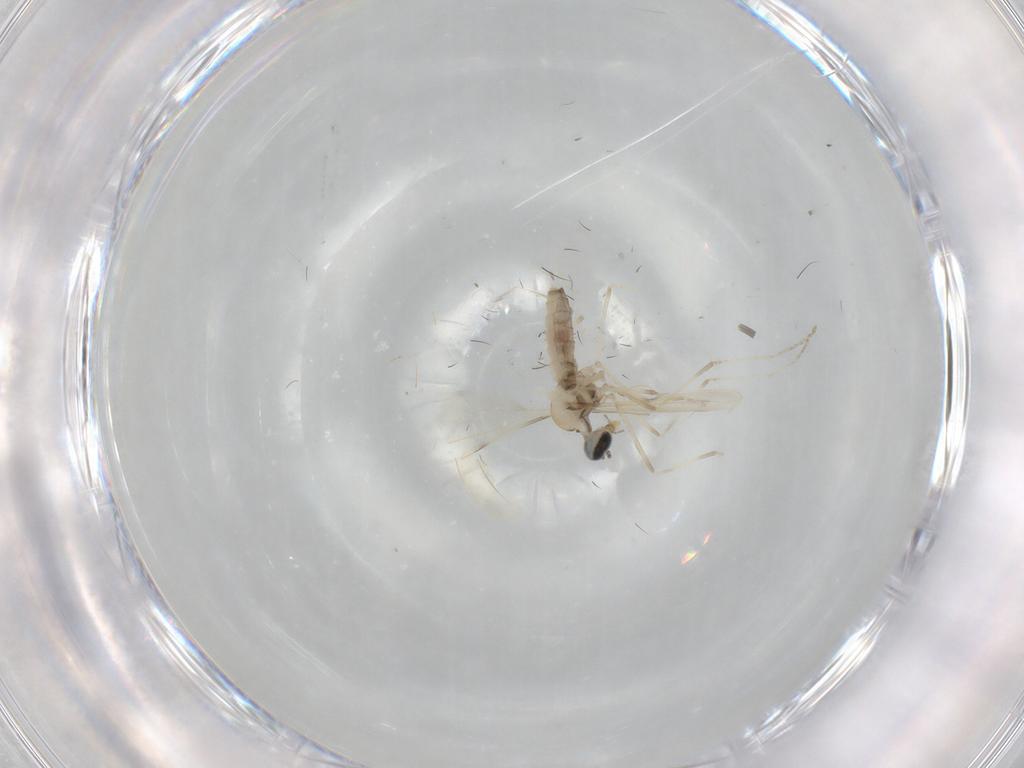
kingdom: Animalia
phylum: Arthropoda
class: Insecta
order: Diptera
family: Cecidomyiidae
